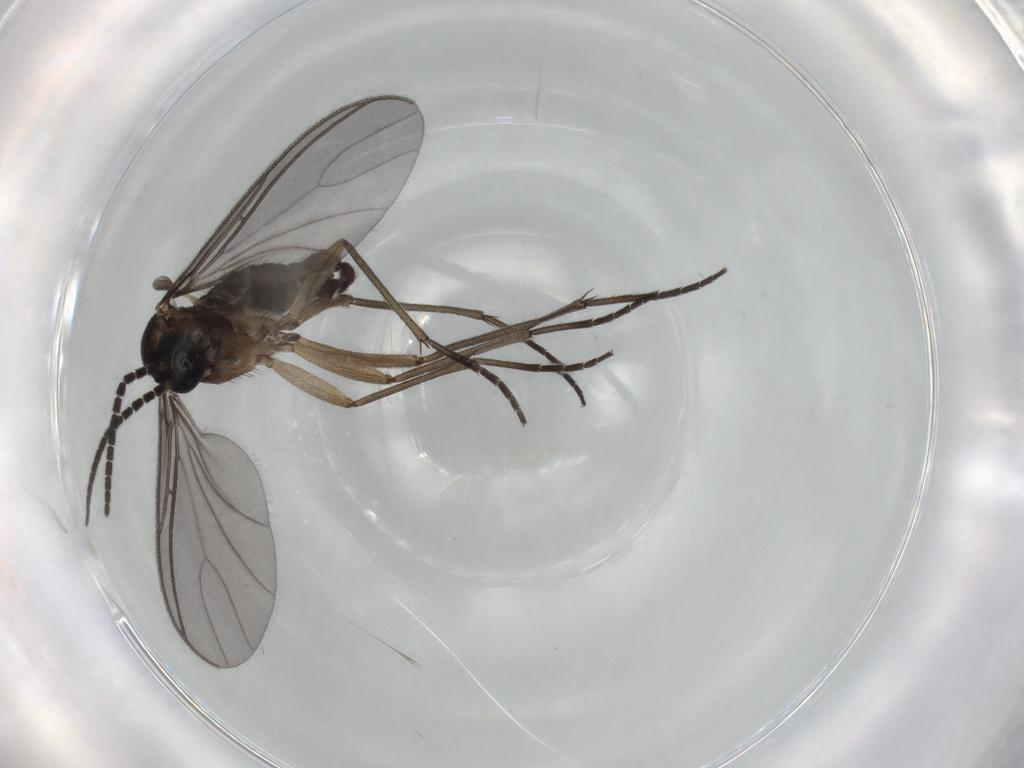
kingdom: Animalia
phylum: Arthropoda
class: Insecta
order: Diptera
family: Sciaridae
